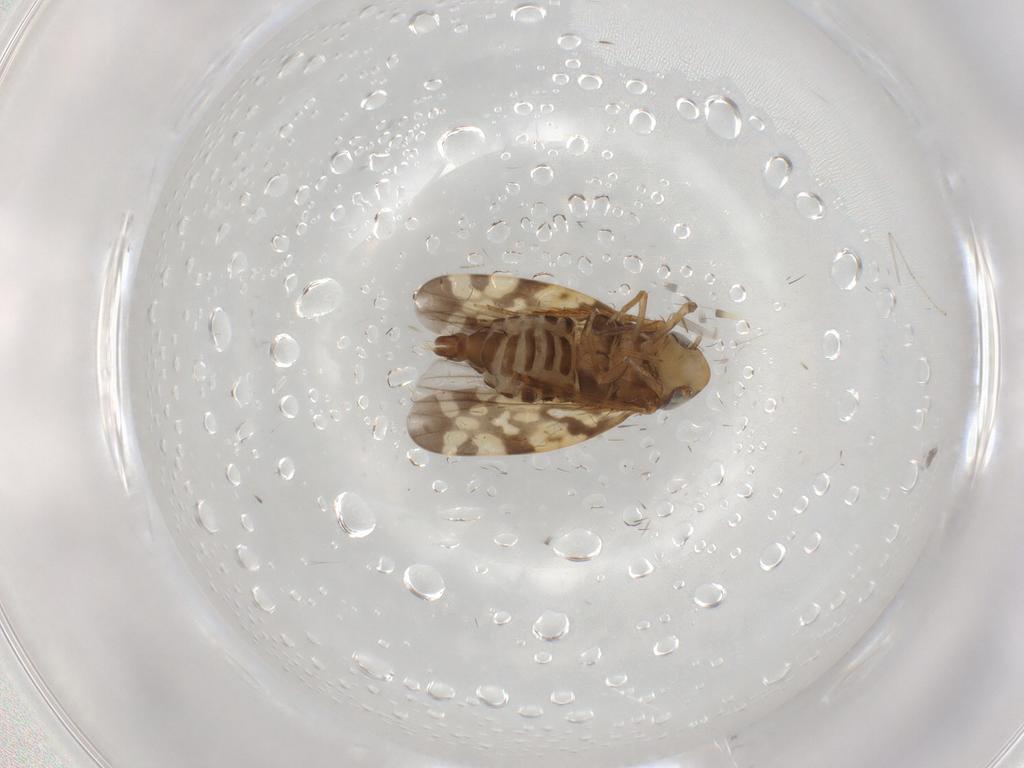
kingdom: Animalia
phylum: Arthropoda
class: Insecta
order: Hemiptera
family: Cicadellidae
